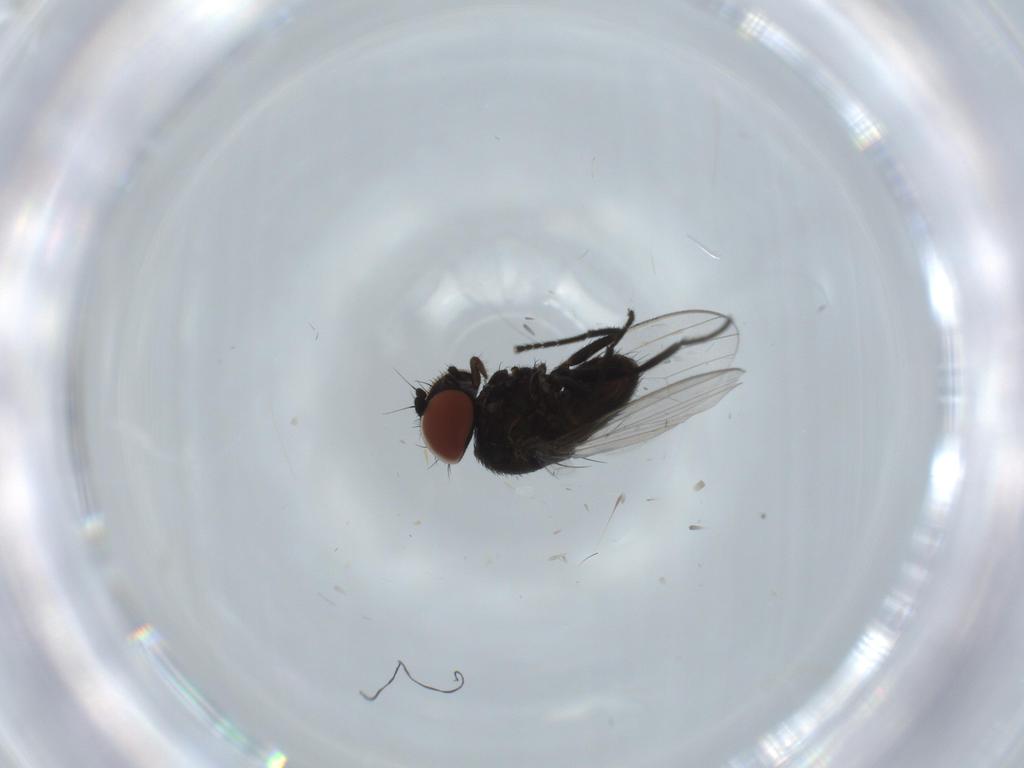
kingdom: Animalia
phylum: Arthropoda
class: Insecta
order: Diptera
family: Milichiidae
